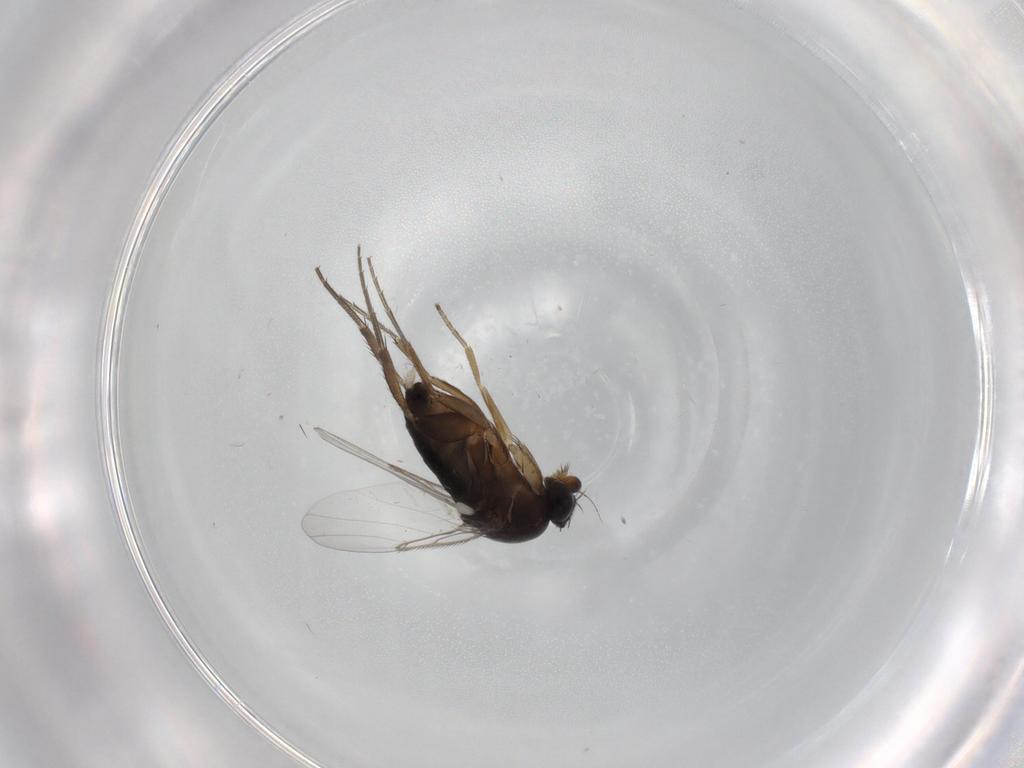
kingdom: Animalia
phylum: Arthropoda
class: Insecta
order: Diptera
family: Phoridae
